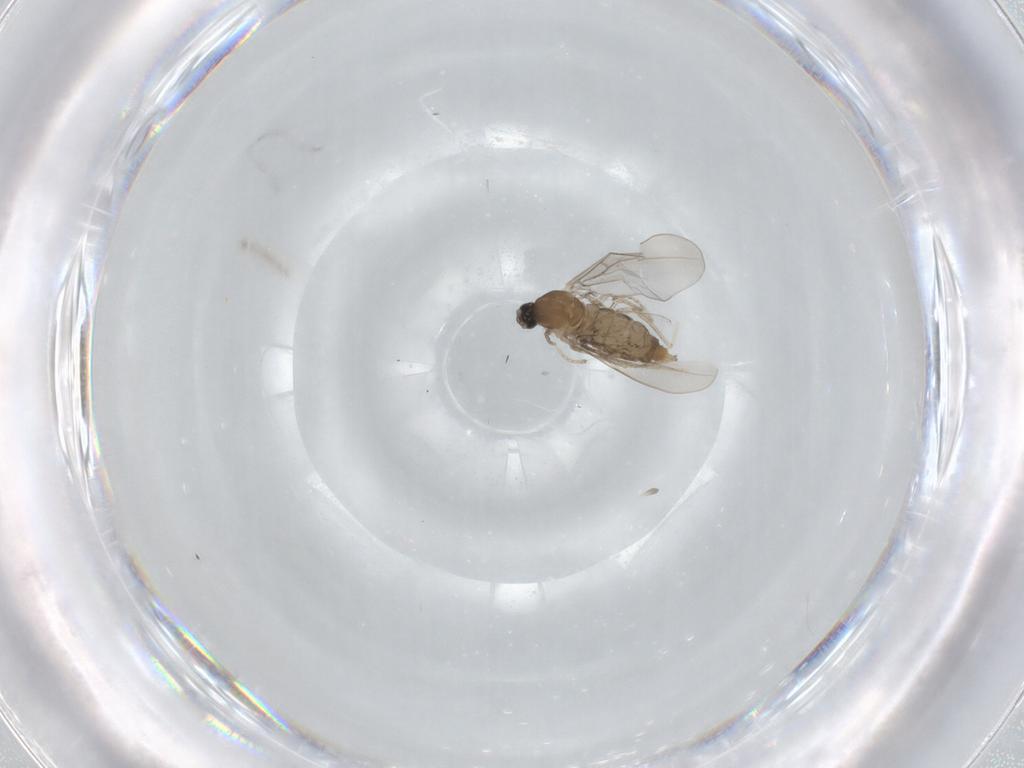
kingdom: Animalia
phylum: Arthropoda
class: Insecta
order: Diptera
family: Cecidomyiidae
